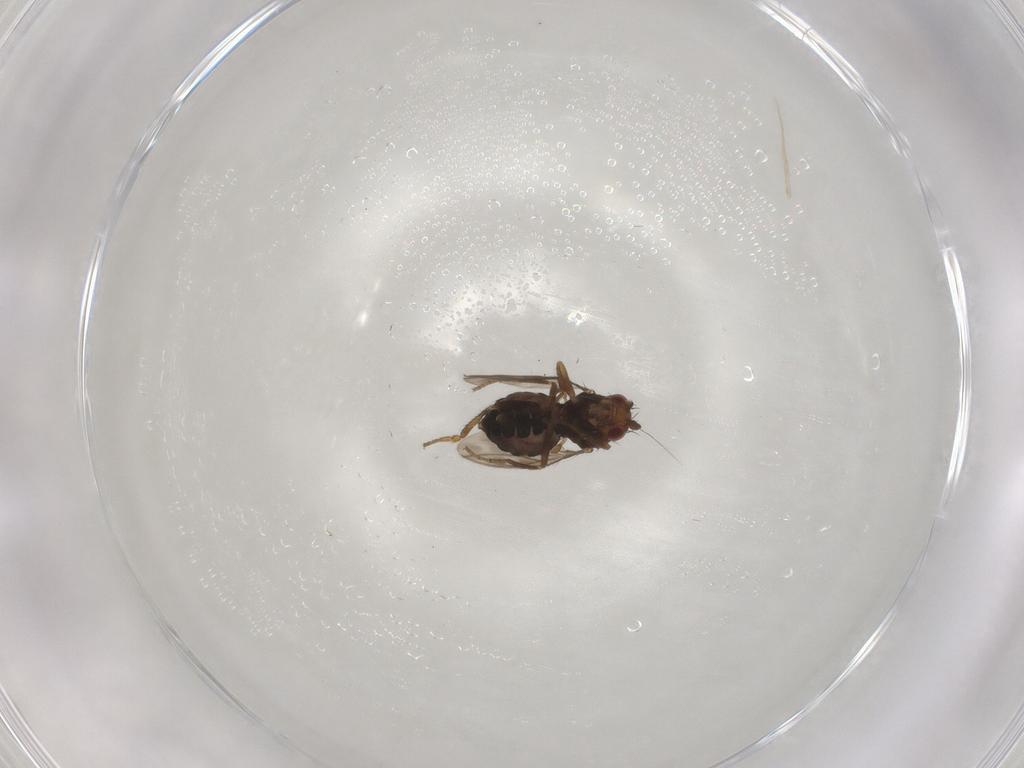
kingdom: Animalia
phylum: Arthropoda
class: Insecta
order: Diptera
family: Sphaeroceridae
